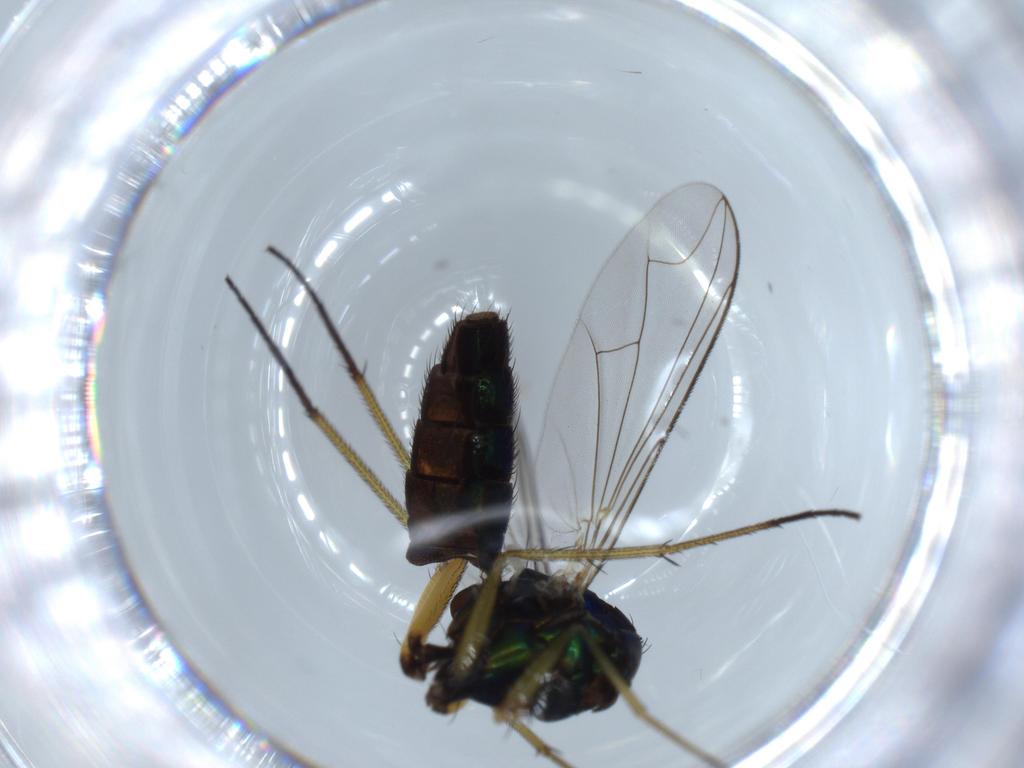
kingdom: Animalia
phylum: Arthropoda
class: Insecta
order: Diptera
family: Dolichopodidae
